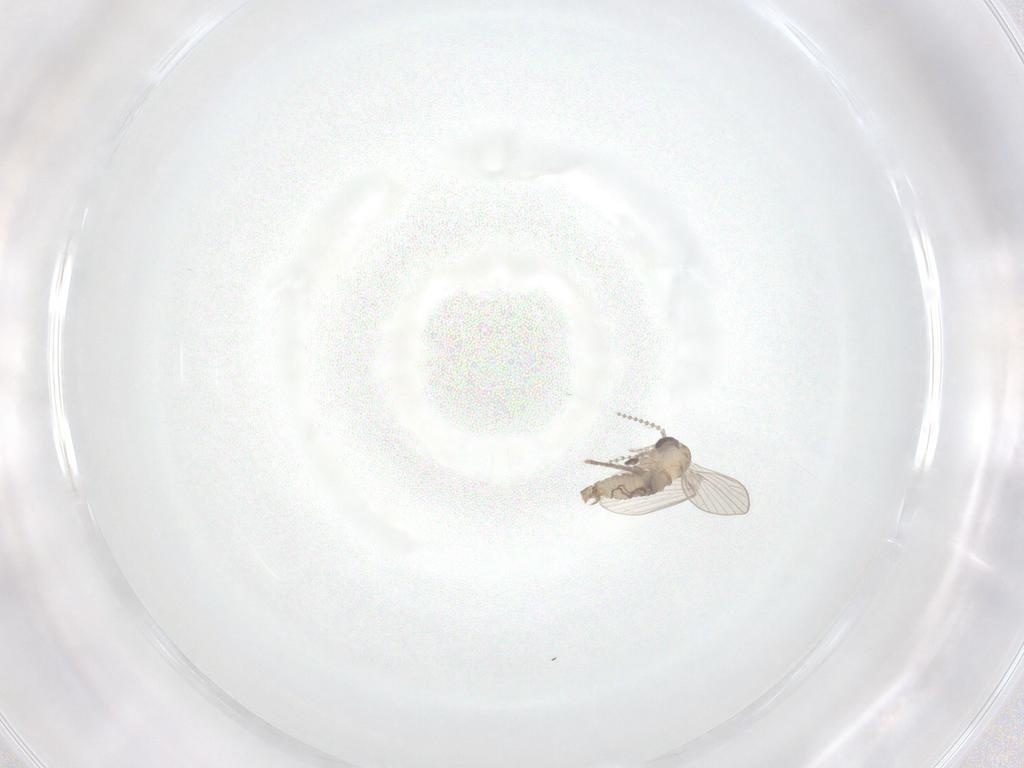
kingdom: Animalia
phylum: Arthropoda
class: Insecta
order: Diptera
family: Psychodidae
